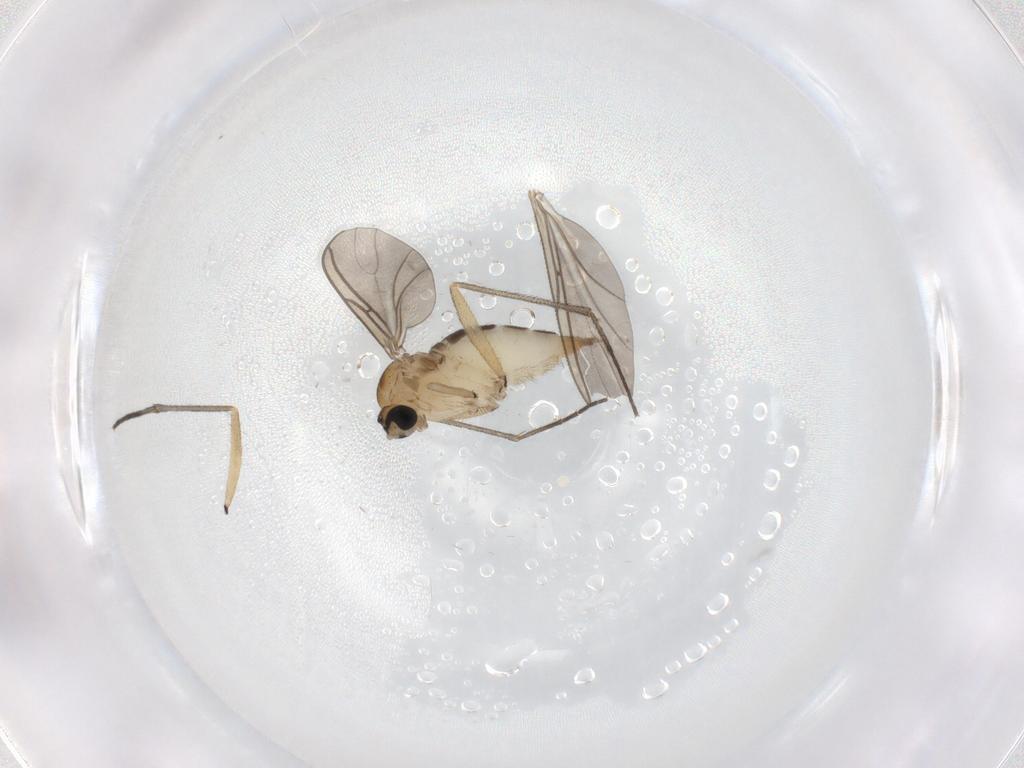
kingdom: Animalia
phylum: Arthropoda
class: Insecta
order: Diptera
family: Sciaridae
